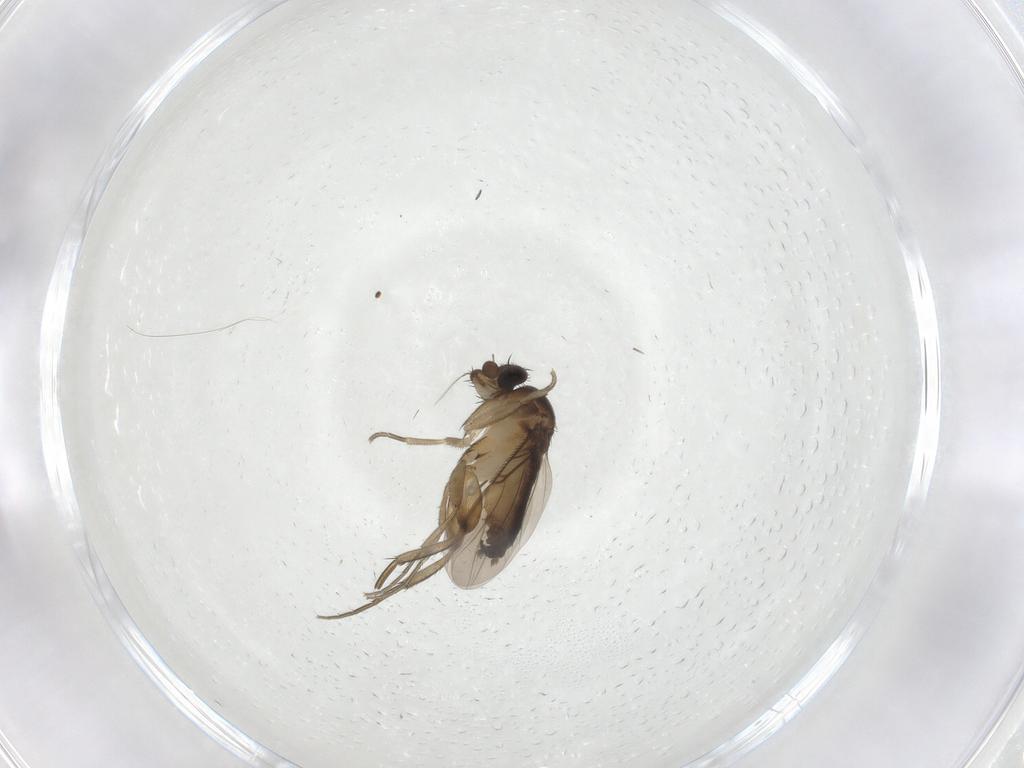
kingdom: Animalia
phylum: Arthropoda
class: Insecta
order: Diptera
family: Phoridae
